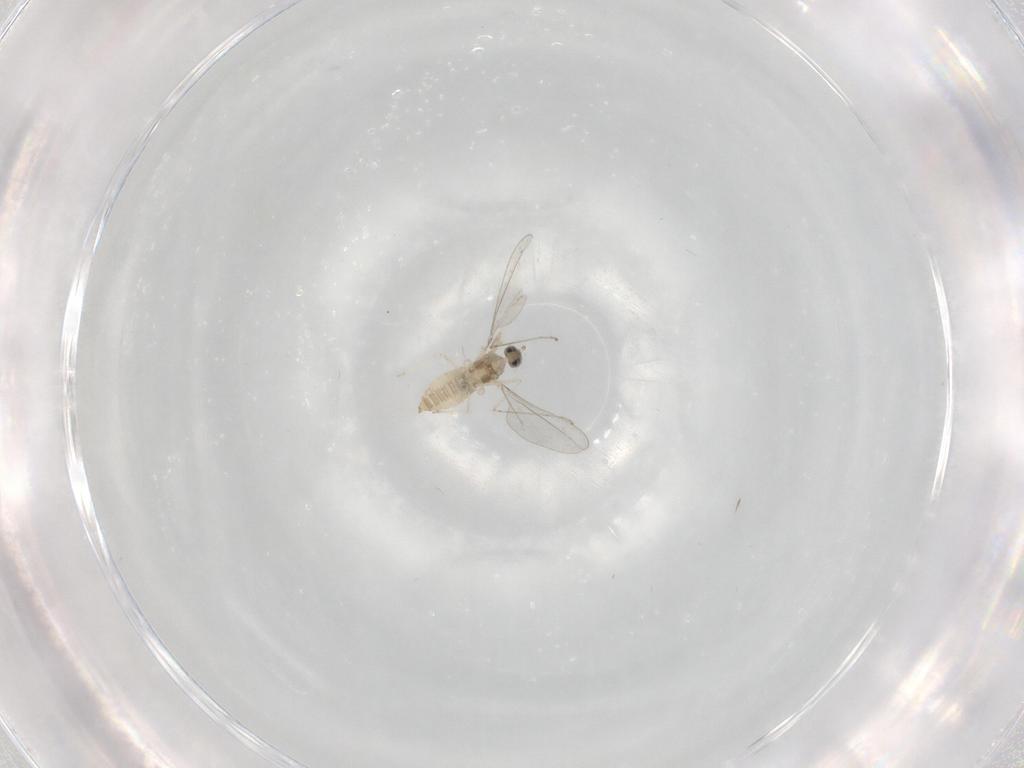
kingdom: Animalia
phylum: Arthropoda
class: Insecta
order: Diptera
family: Cecidomyiidae
